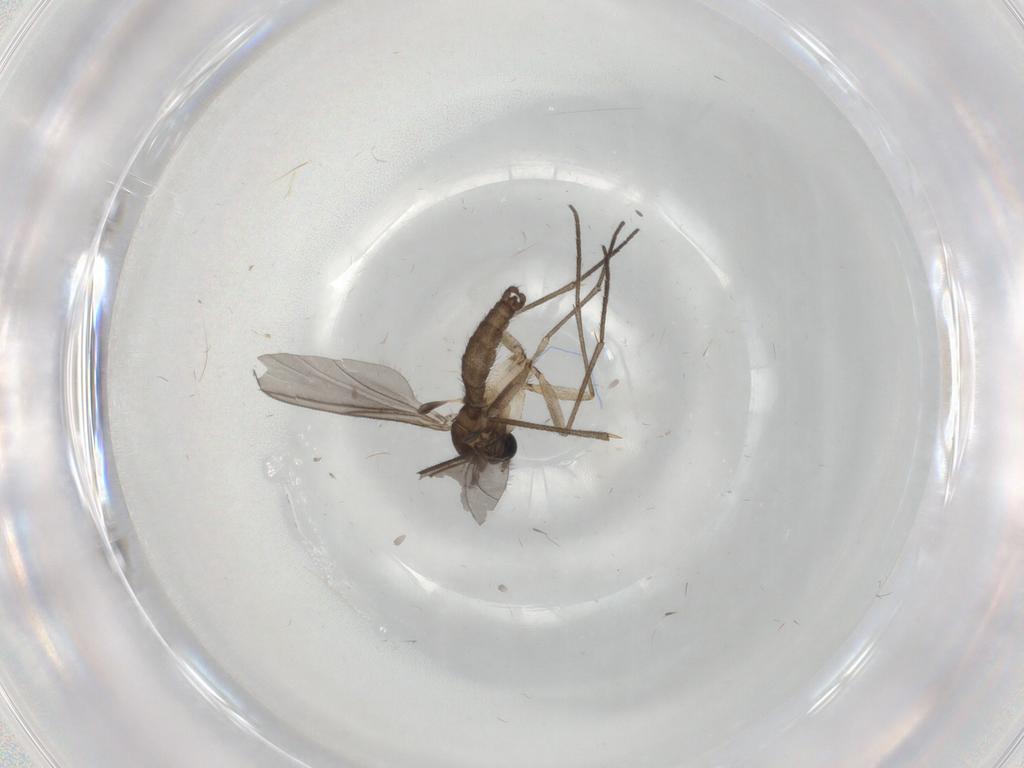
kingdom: Animalia
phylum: Arthropoda
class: Insecta
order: Diptera
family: Sciaridae
